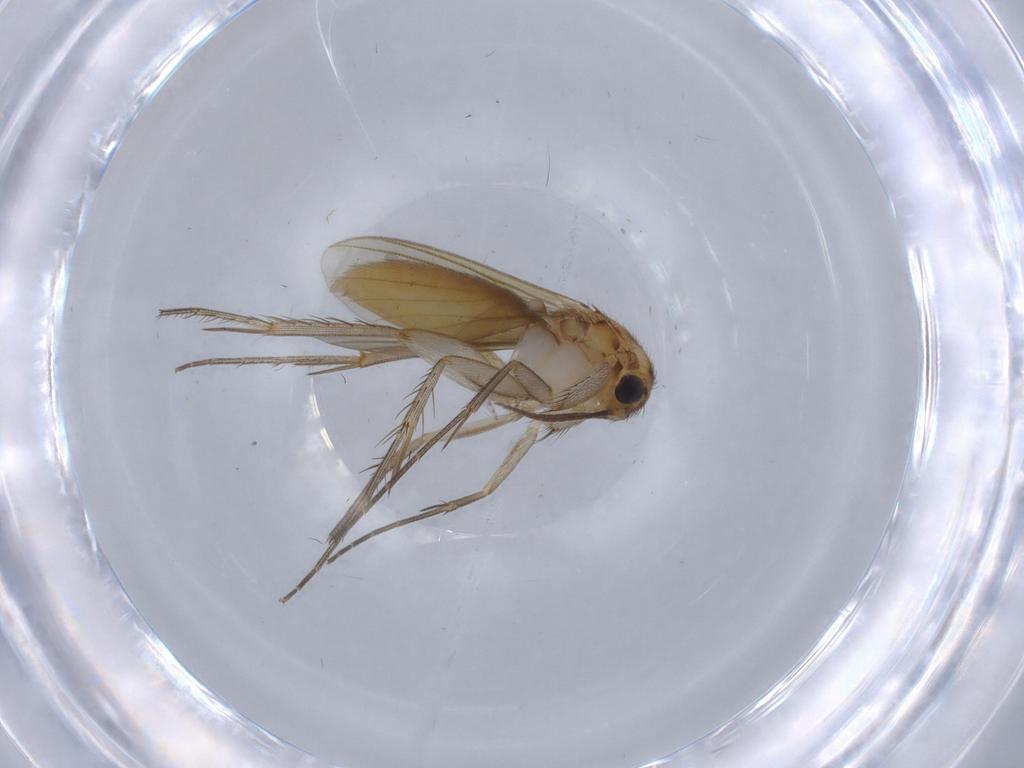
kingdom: Animalia
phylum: Arthropoda
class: Insecta
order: Diptera
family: Mycetophilidae
